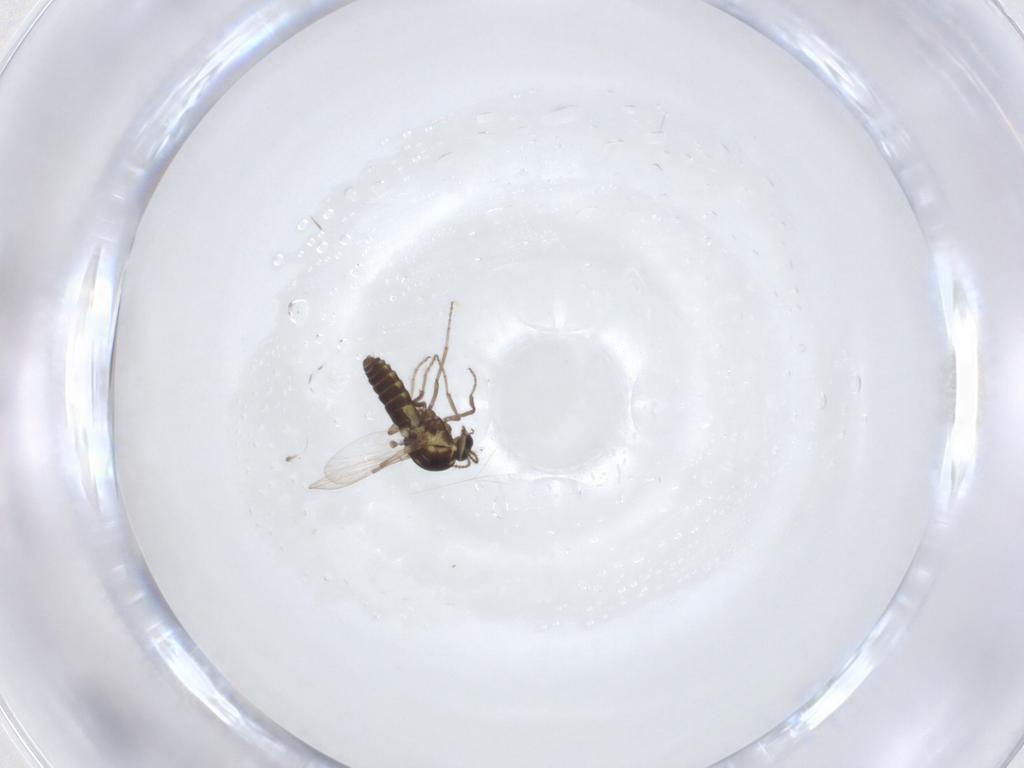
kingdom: Animalia
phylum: Arthropoda
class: Insecta
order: Diptera
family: Ceratopogonidae
